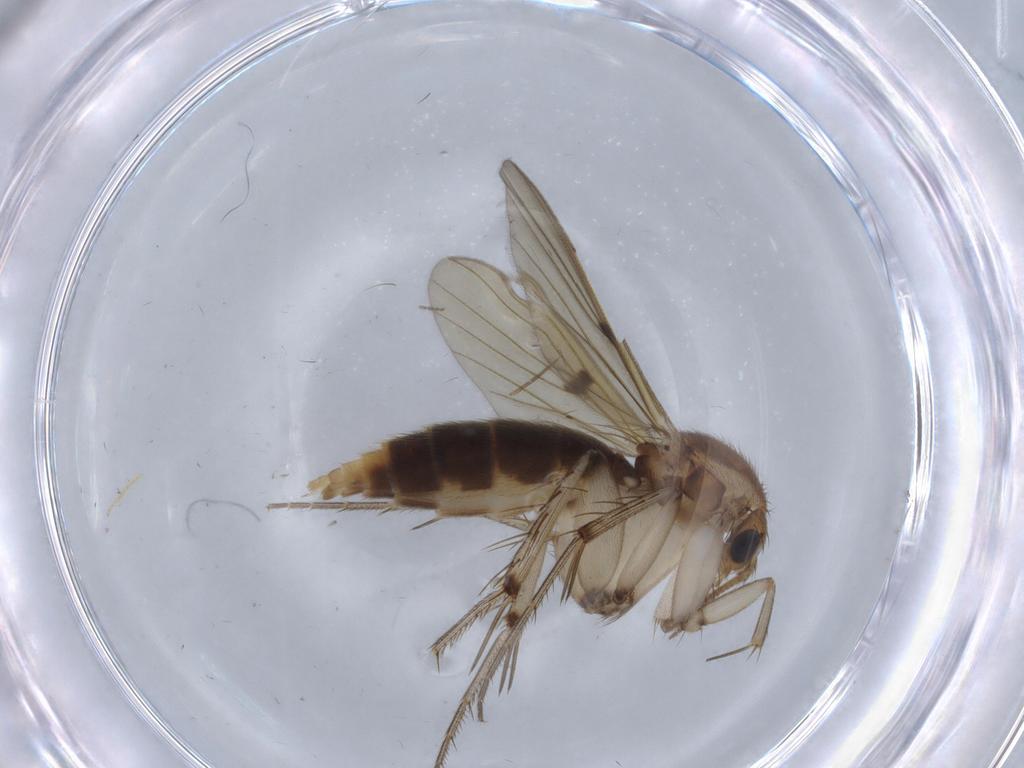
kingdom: Animalia
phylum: Arthropoda
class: Insecta
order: Diptera
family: Mycetophilidae
